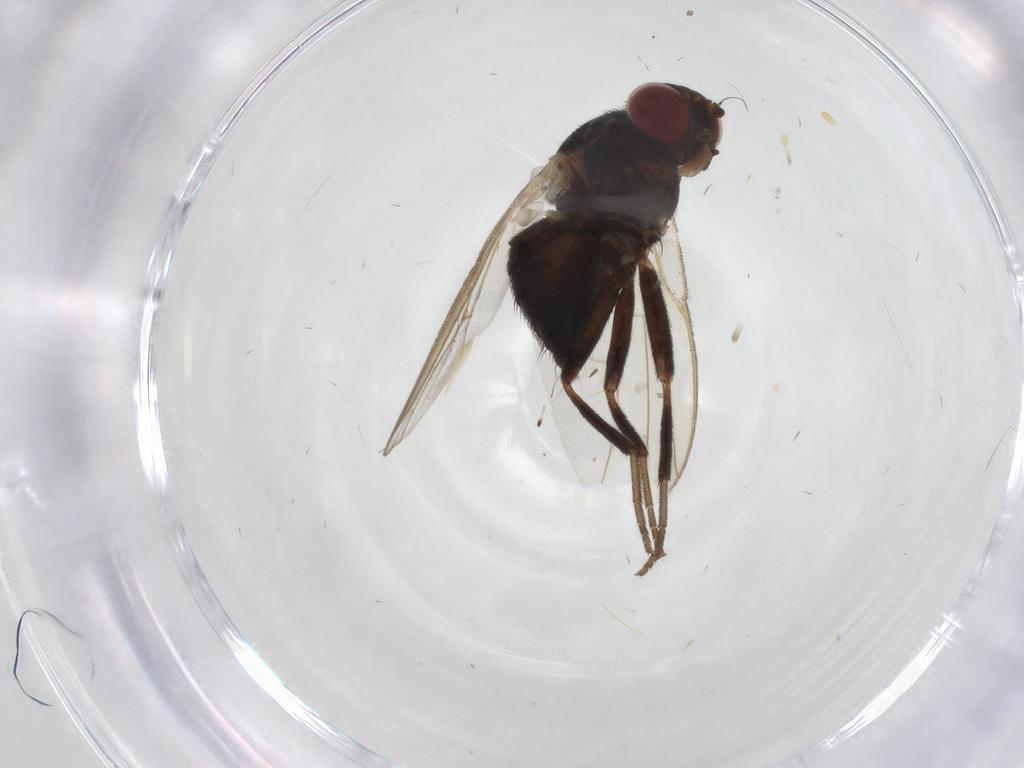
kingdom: Animalia
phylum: Arthropoda
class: Insecta
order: Diptera
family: Agromyzidae
